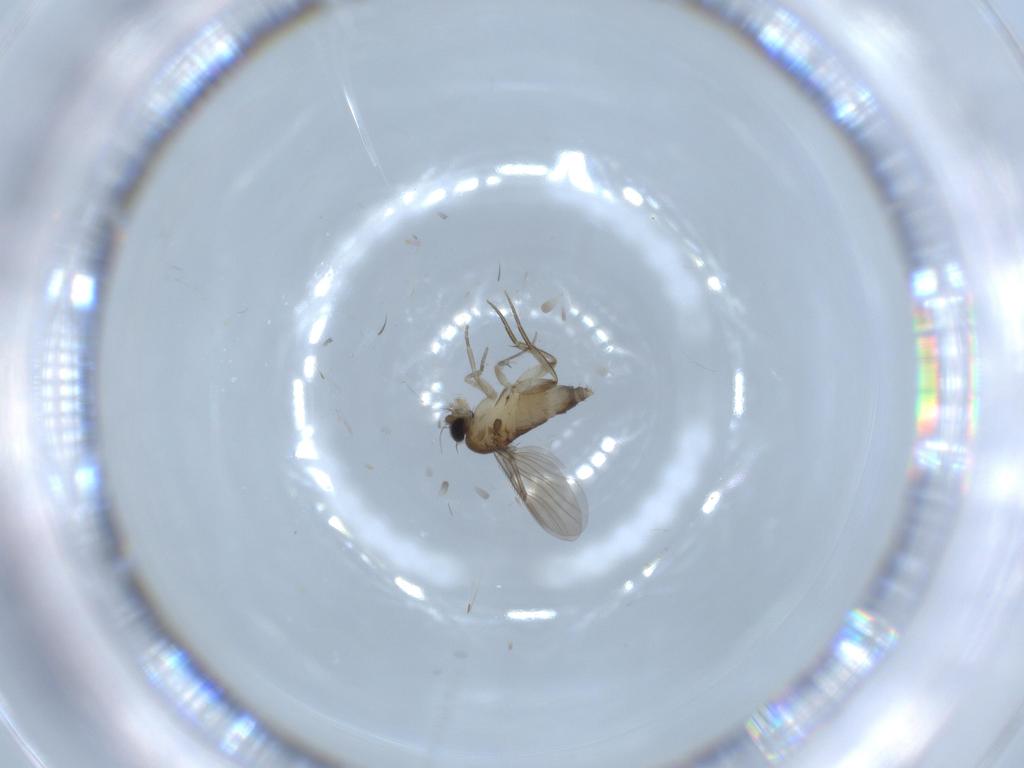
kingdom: Animalia
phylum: Arthropoda
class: Insecta
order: Diptera
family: Phoridae
